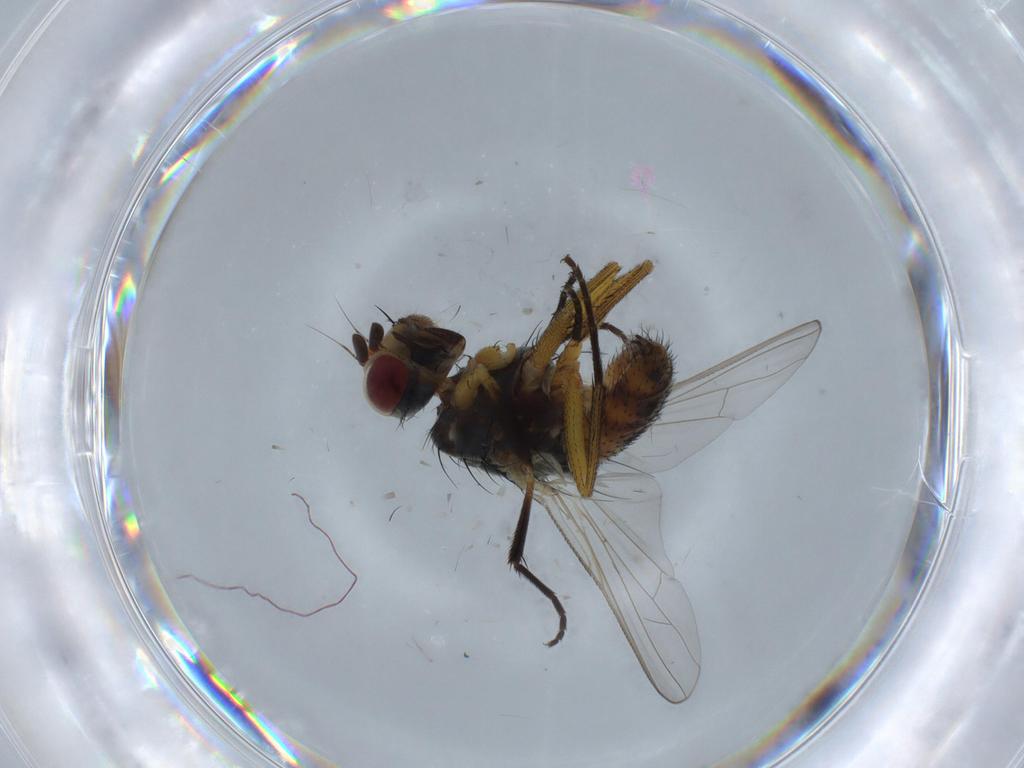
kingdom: Animalia
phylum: Arthropoda
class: Insecta
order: Diptera
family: Muscidae
